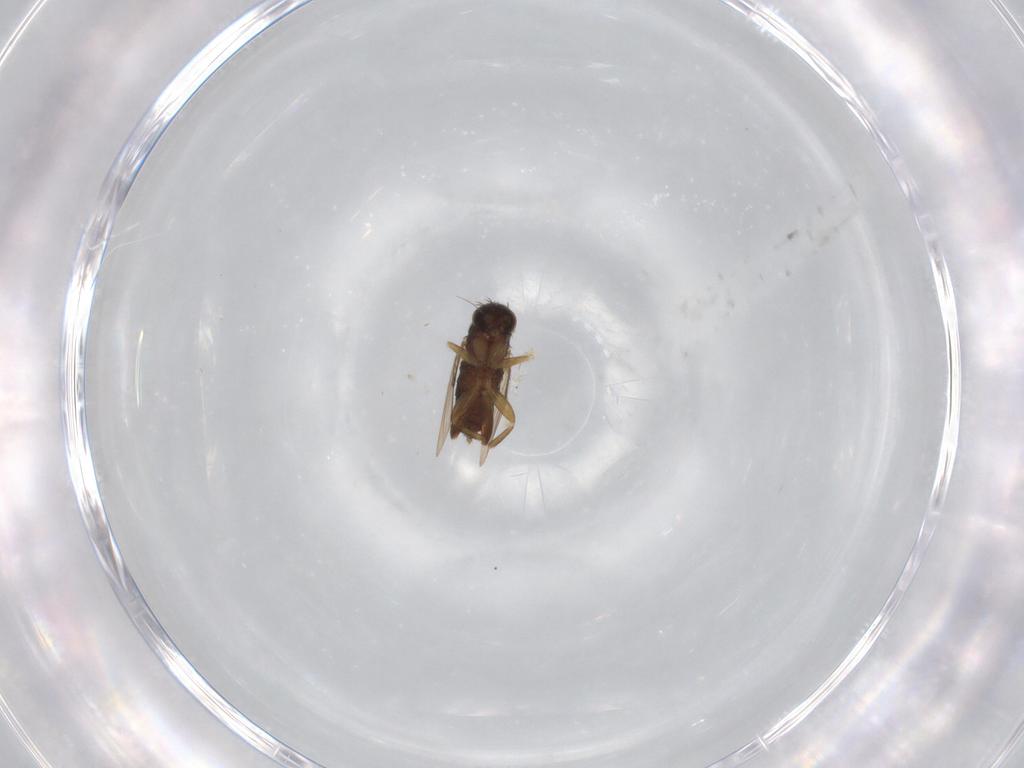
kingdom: Animalia
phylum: Arthropoda
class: Insecta
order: Diptera
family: Phoridae
